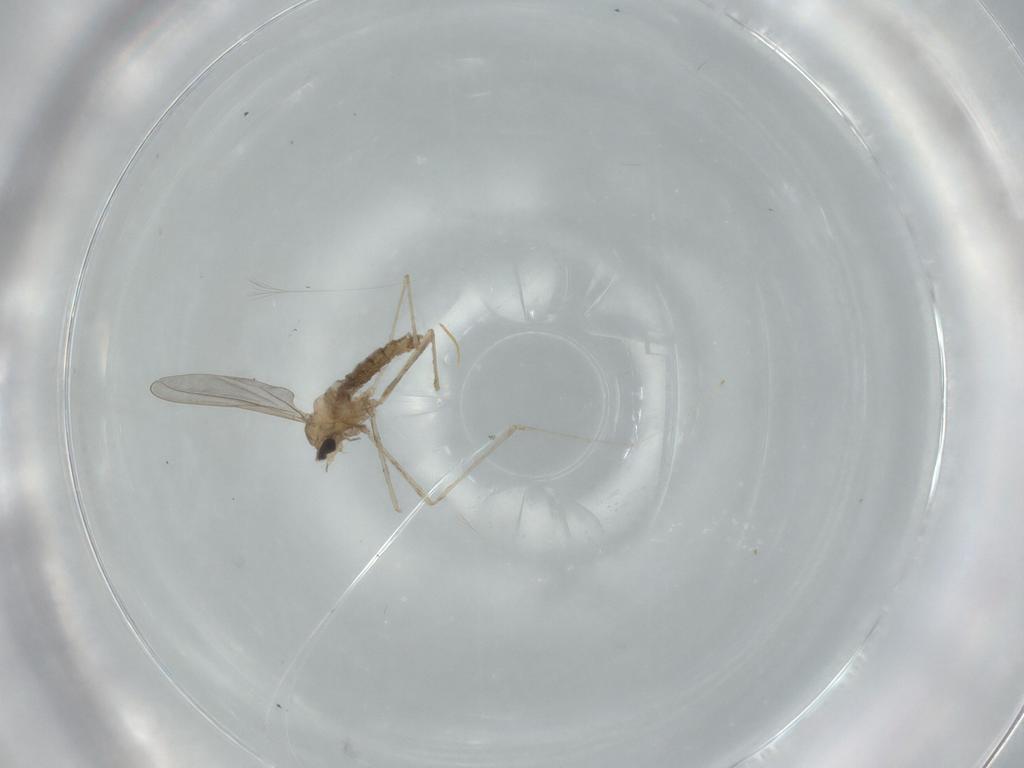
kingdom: Animalia
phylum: Arthropoda
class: Insecta
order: Diptera
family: Cecidomyiidae
